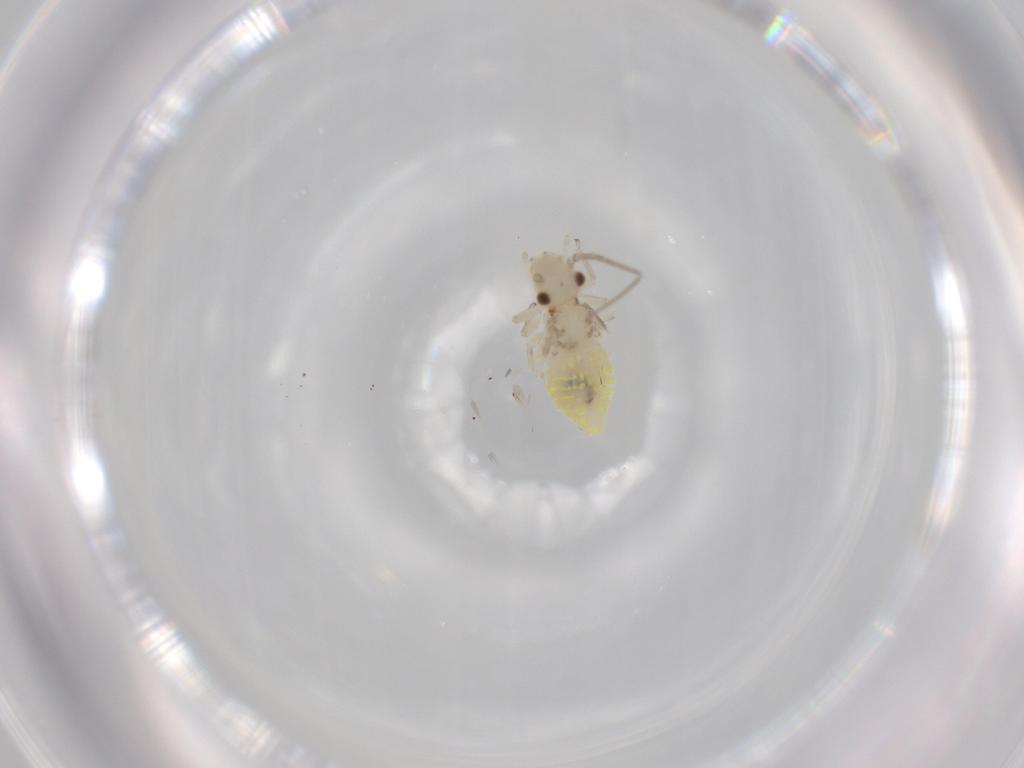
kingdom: Animalia
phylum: Arthropoda
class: Insecta
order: Psocodea
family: Caeciliusidae
